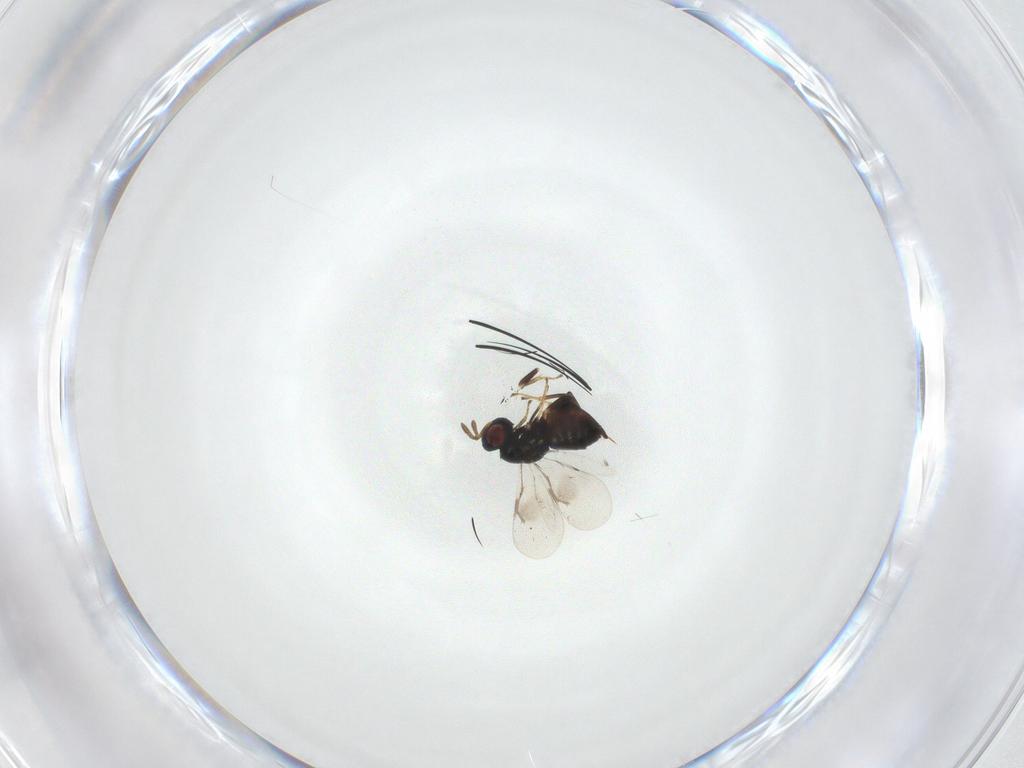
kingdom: Animalia
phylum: Arthropoda
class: Insecta
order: Hymenoptera
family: Pteromalidae
